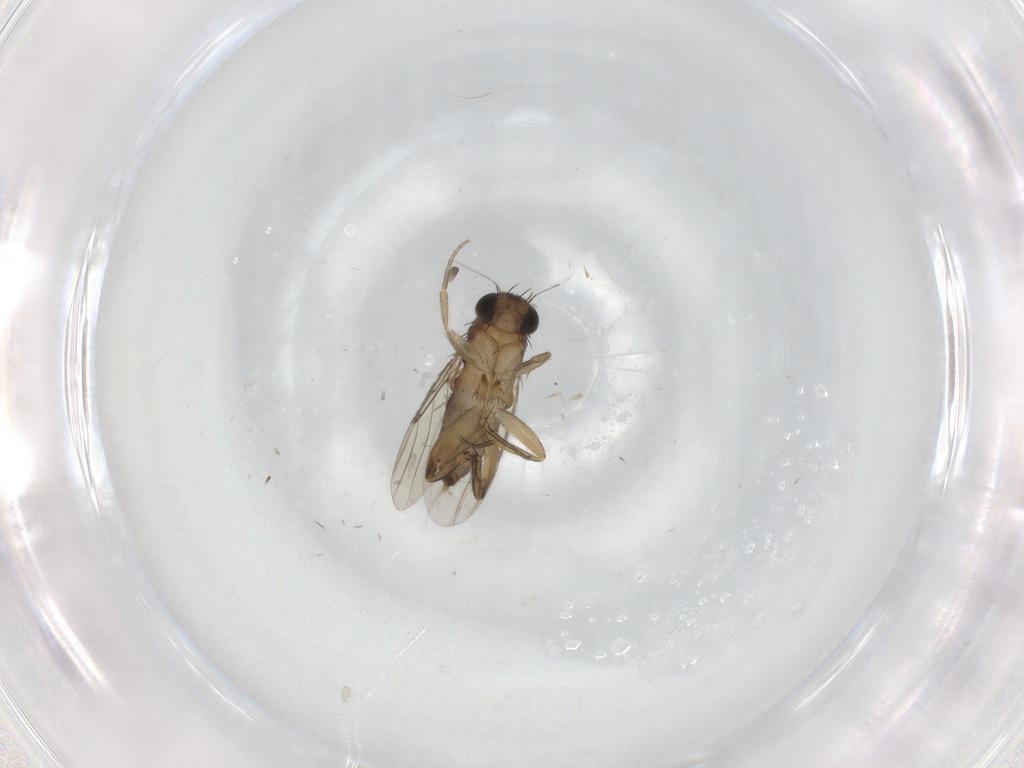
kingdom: Animalia
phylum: Arthropoda
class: Insecta
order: Diptera
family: Phoridae
